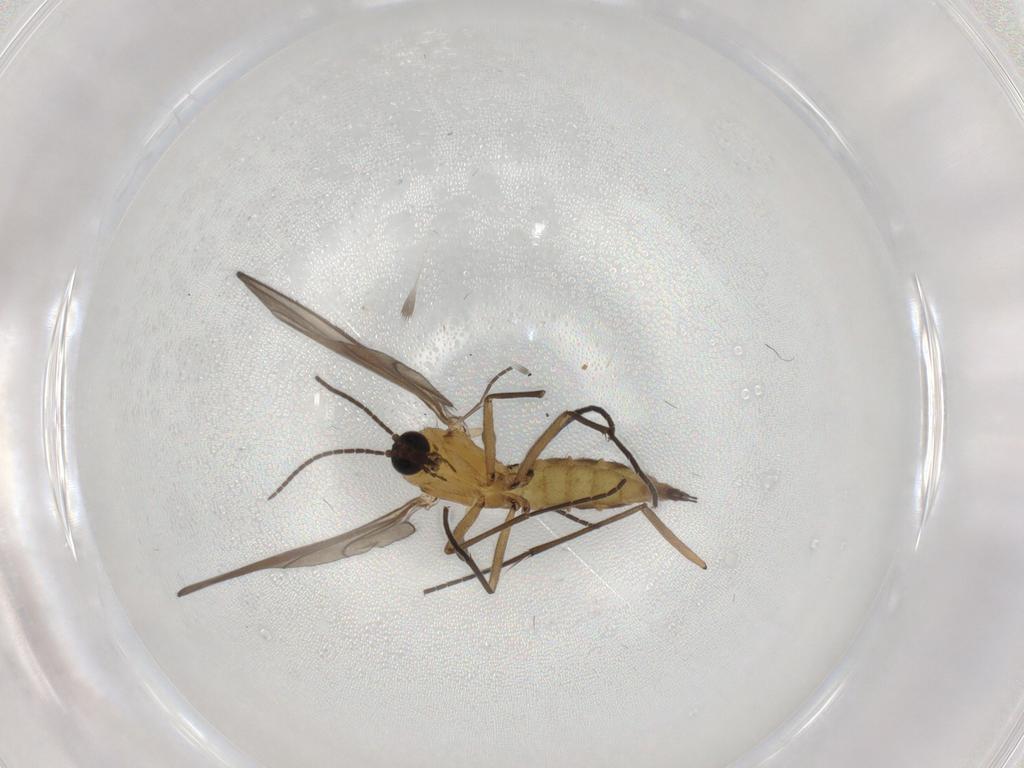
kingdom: Animalia
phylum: Arthropoda
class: Insecta
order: Diptera
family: Sciaridae
